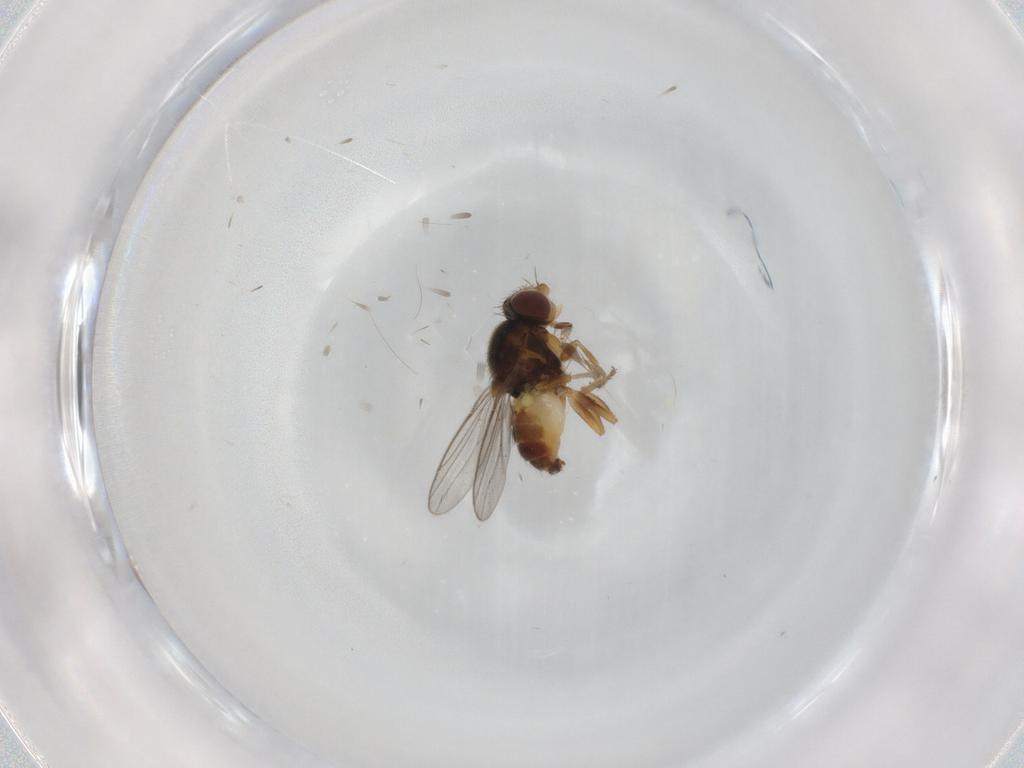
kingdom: Animalia
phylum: Arthropoda
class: Insecta
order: Diptera
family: Chloropidae
